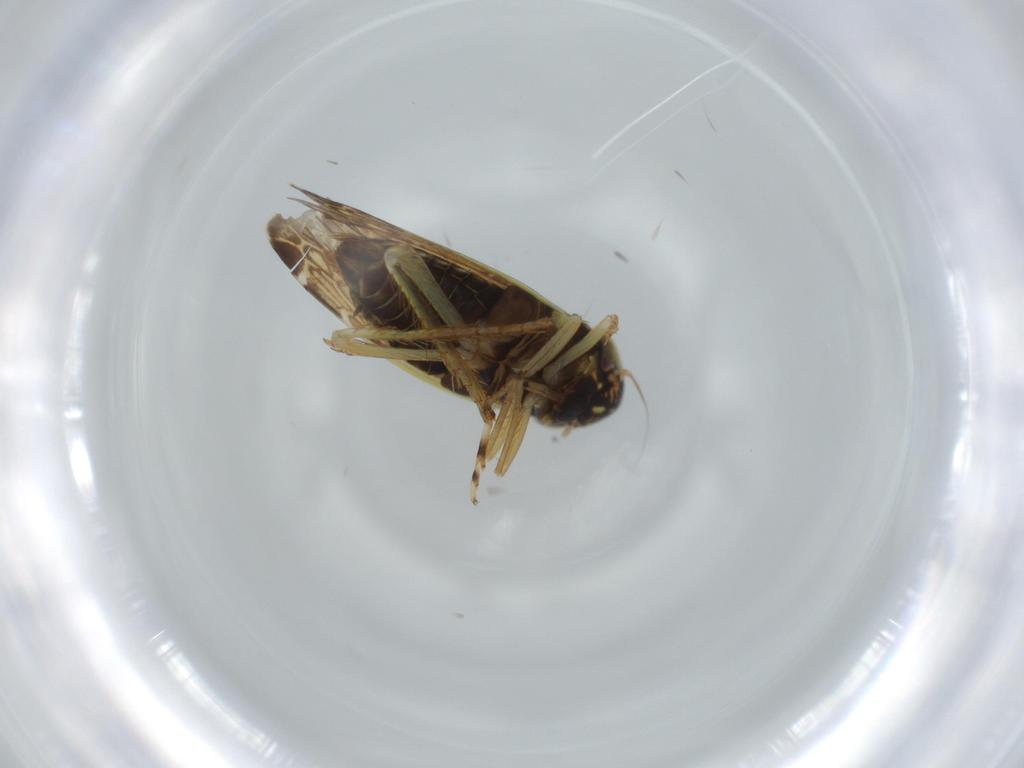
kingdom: Animalia
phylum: Arthropoda
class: Insecta
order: Hemiptera
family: Cicadellidae
